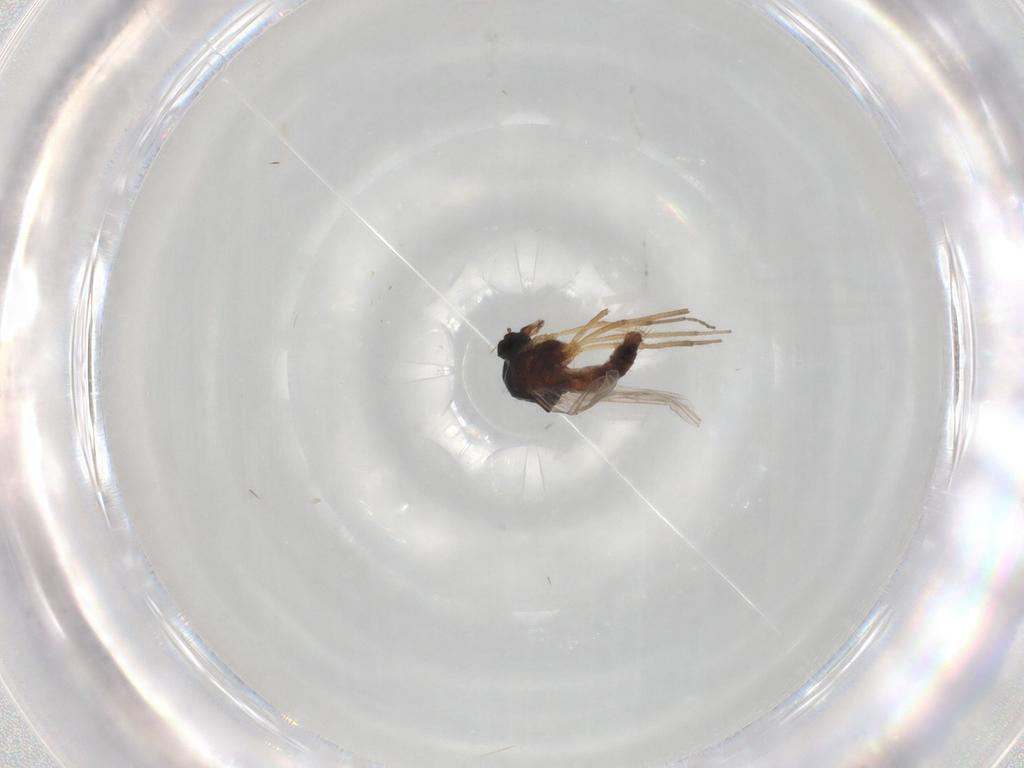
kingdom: Animalia
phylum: Arthropoda
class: Insecta
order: Diptera
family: Ceratopogonidae
